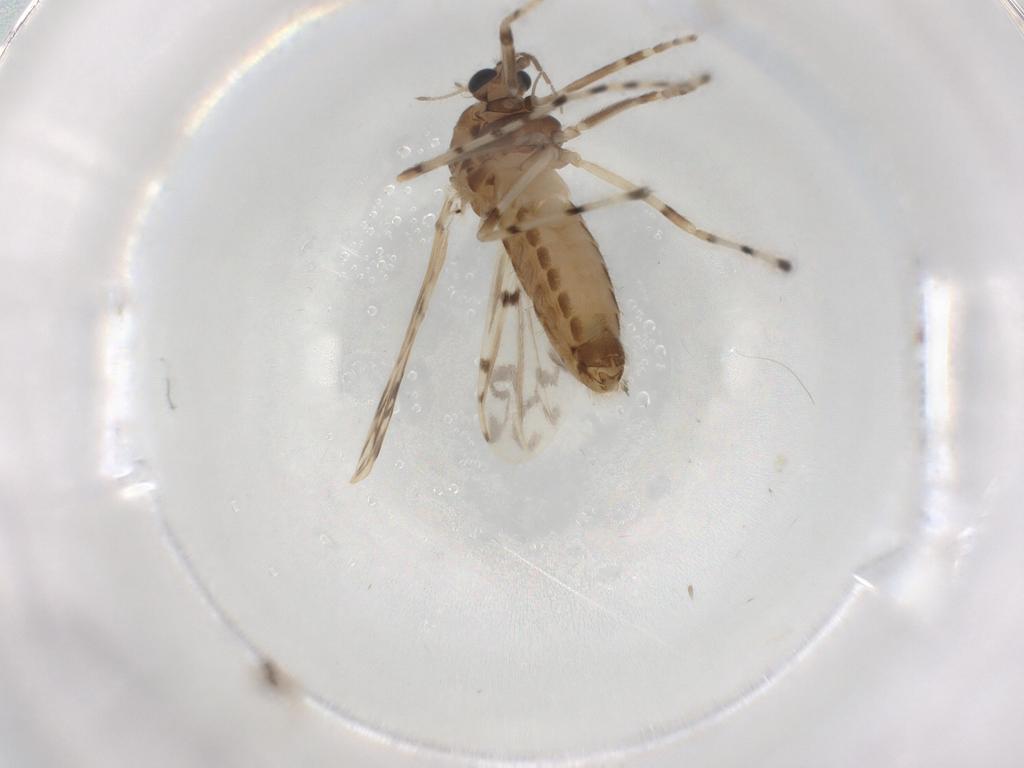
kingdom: Animalia
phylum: Arthropoda
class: Insecta
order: Diptera
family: Chironomidae
